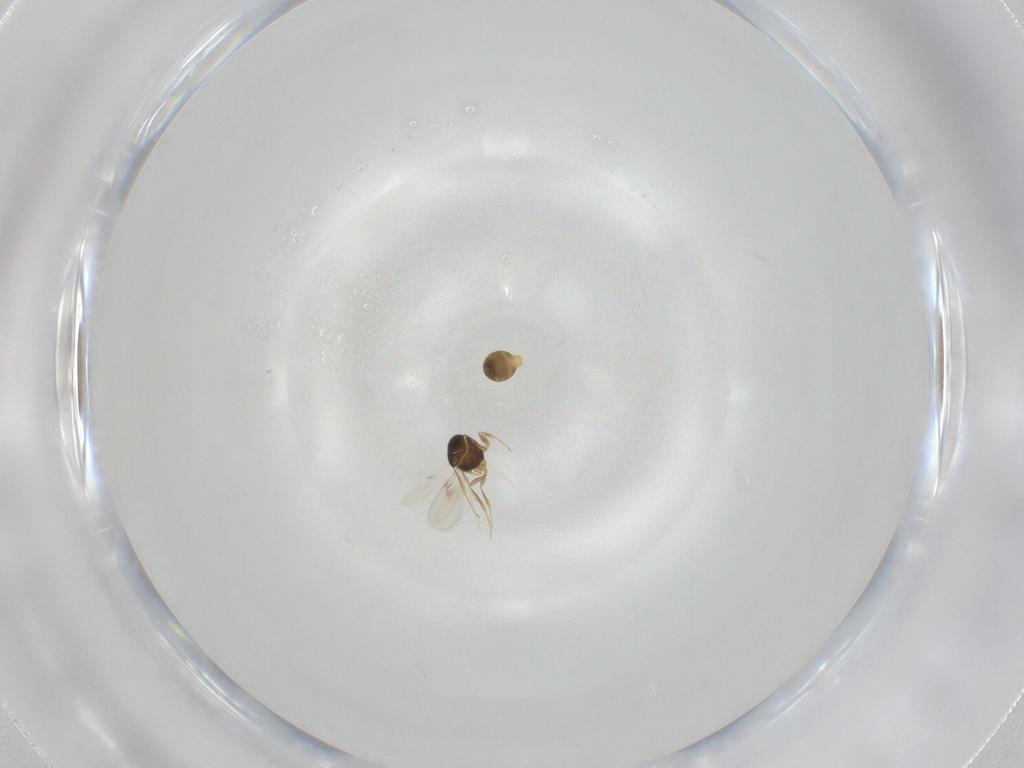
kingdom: Animalia
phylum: Arthropoda
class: Insecta
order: Hymenoptera
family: Scelionidae
